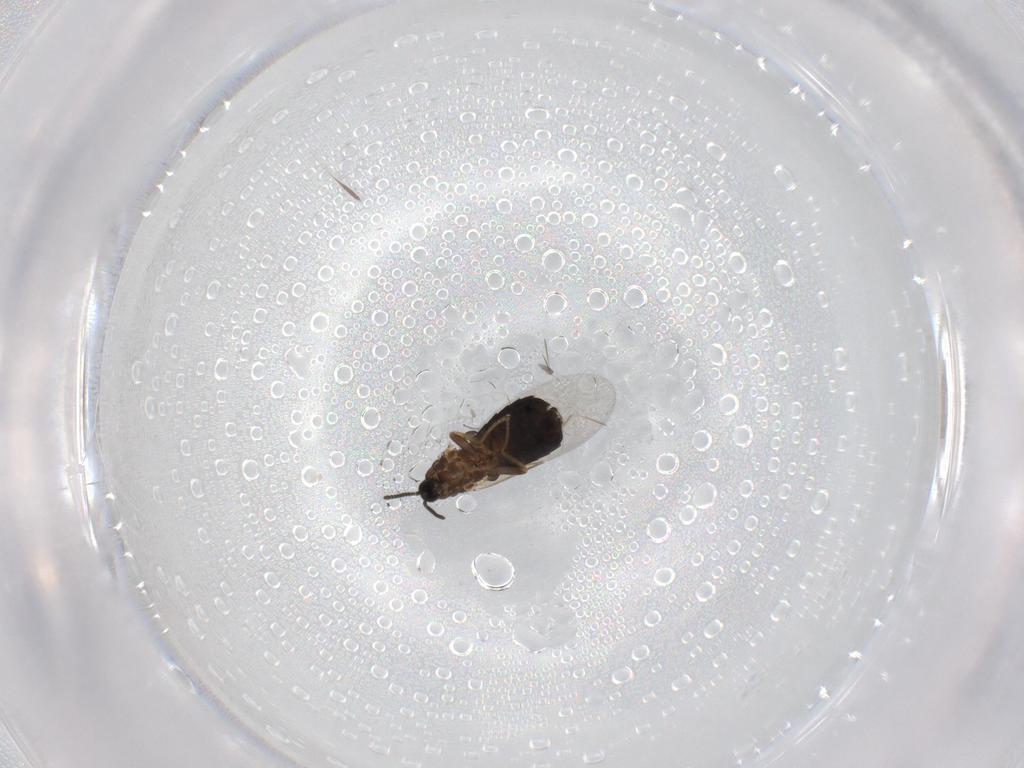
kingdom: Animalia
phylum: Arthropoda
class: Insecta
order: Diptera
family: Scatopsidae
